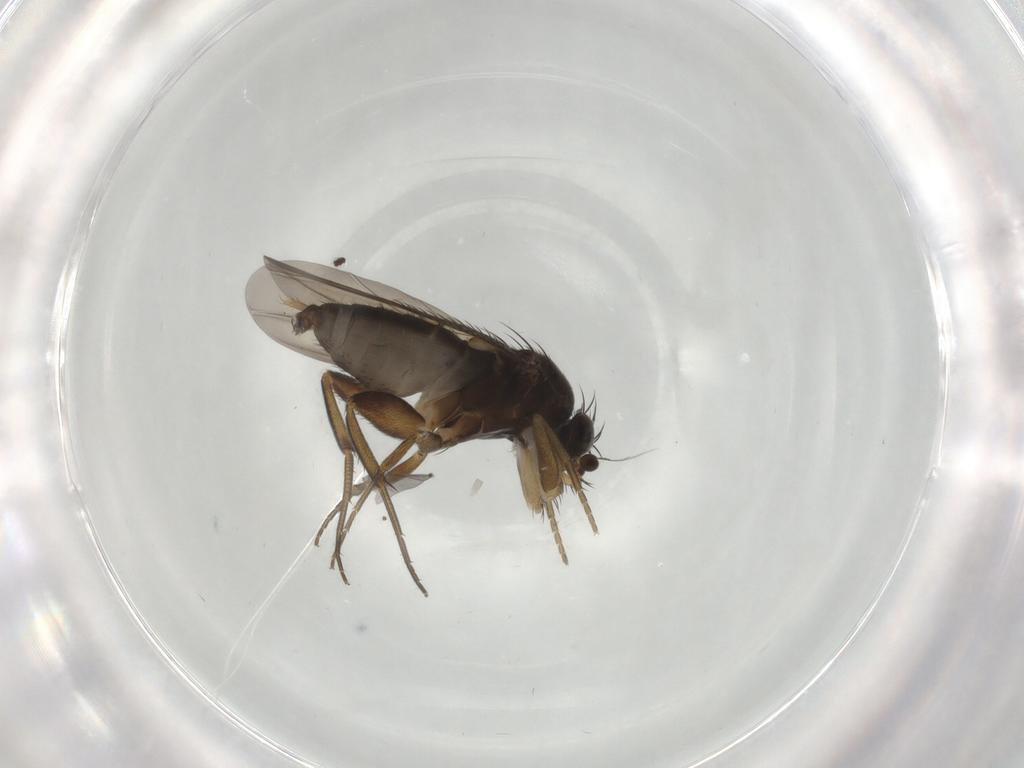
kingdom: Animalia
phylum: Arthropoda
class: Insecta
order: Diptera
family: Phoridae
